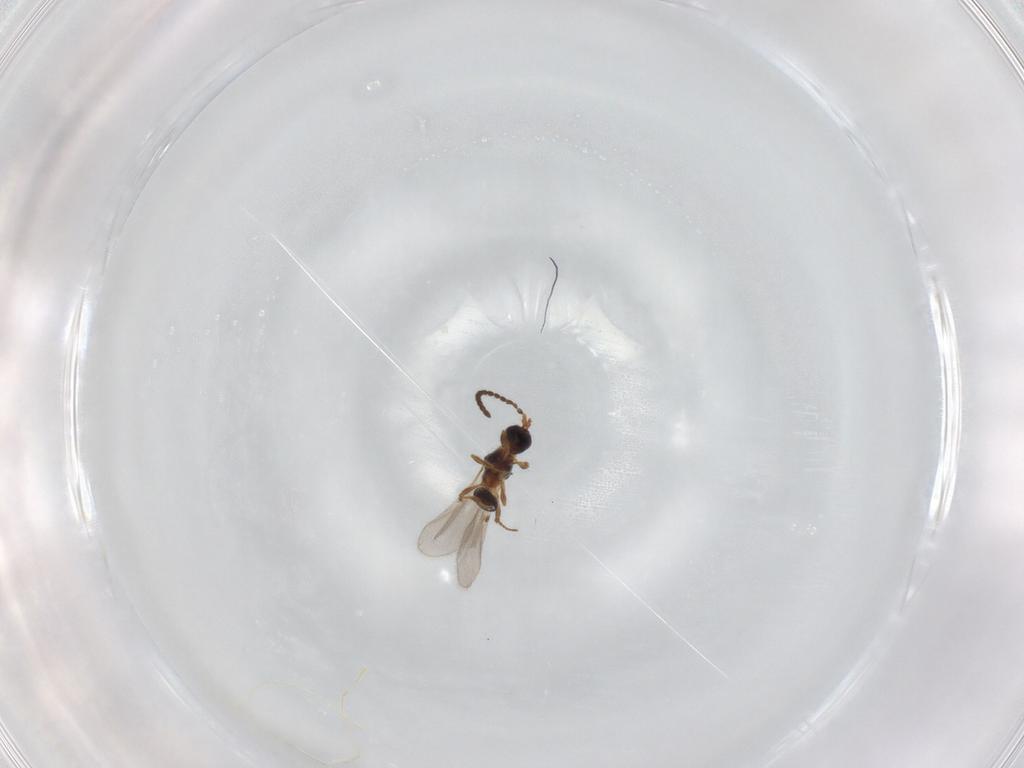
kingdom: Animalia
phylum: Arthropoda
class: Insecta
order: Hymenoptera
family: Diapriidae
